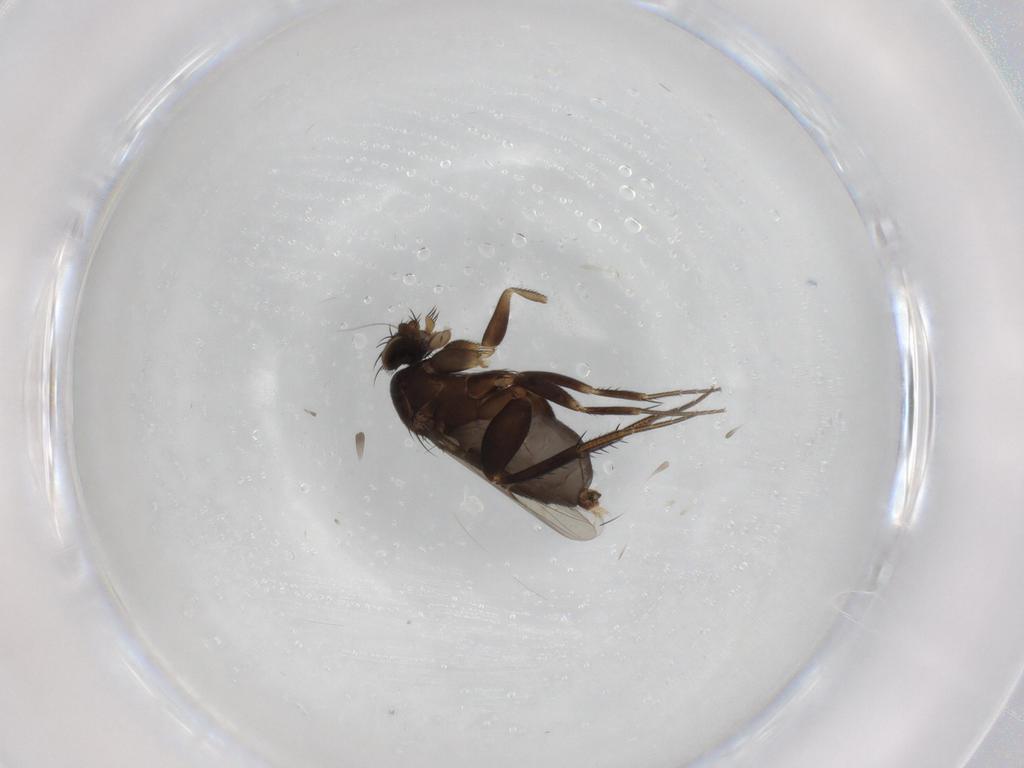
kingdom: Animalia
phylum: Arthropoda
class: Insecta
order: Diptera
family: Phoridae
